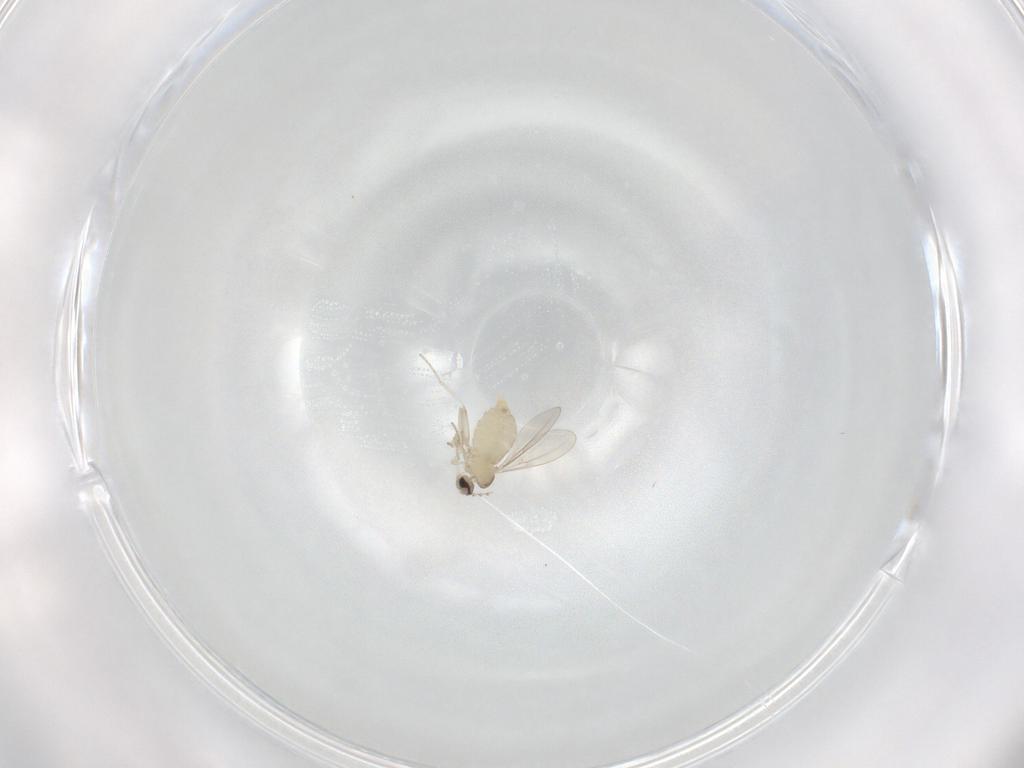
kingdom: Animalia
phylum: Arthropoda
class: Insecta
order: Diptera
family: Cecidomyiidae
